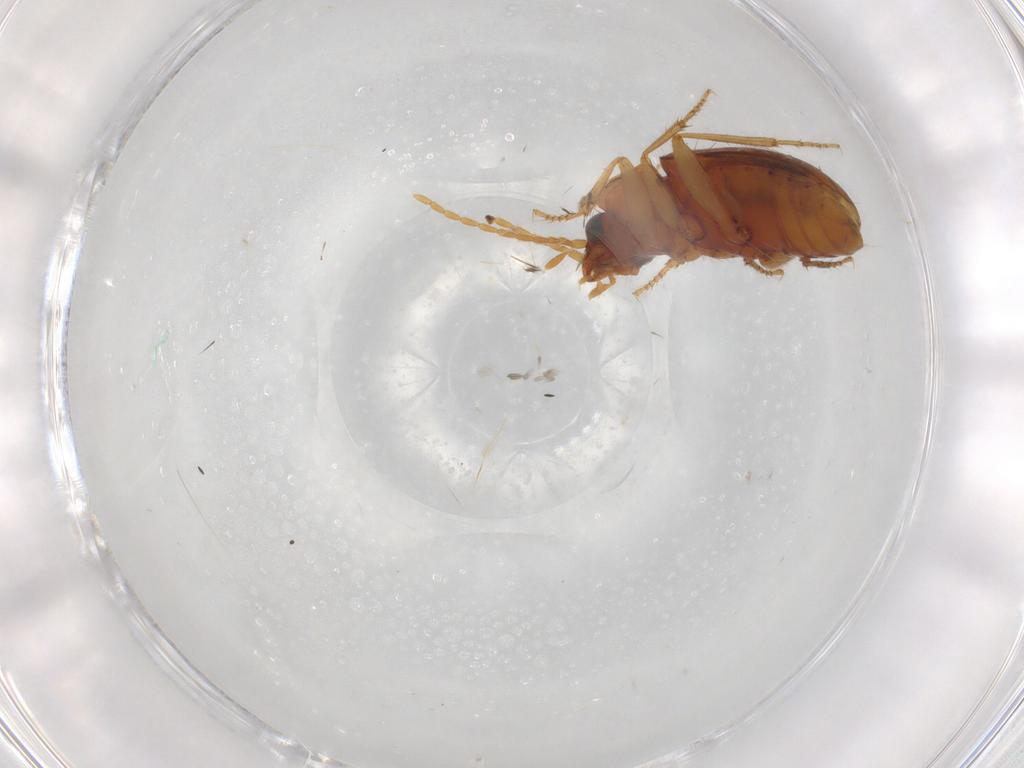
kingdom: Animalia
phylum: Arthropoda
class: Insecta
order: Coleoptera
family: Carabidae
